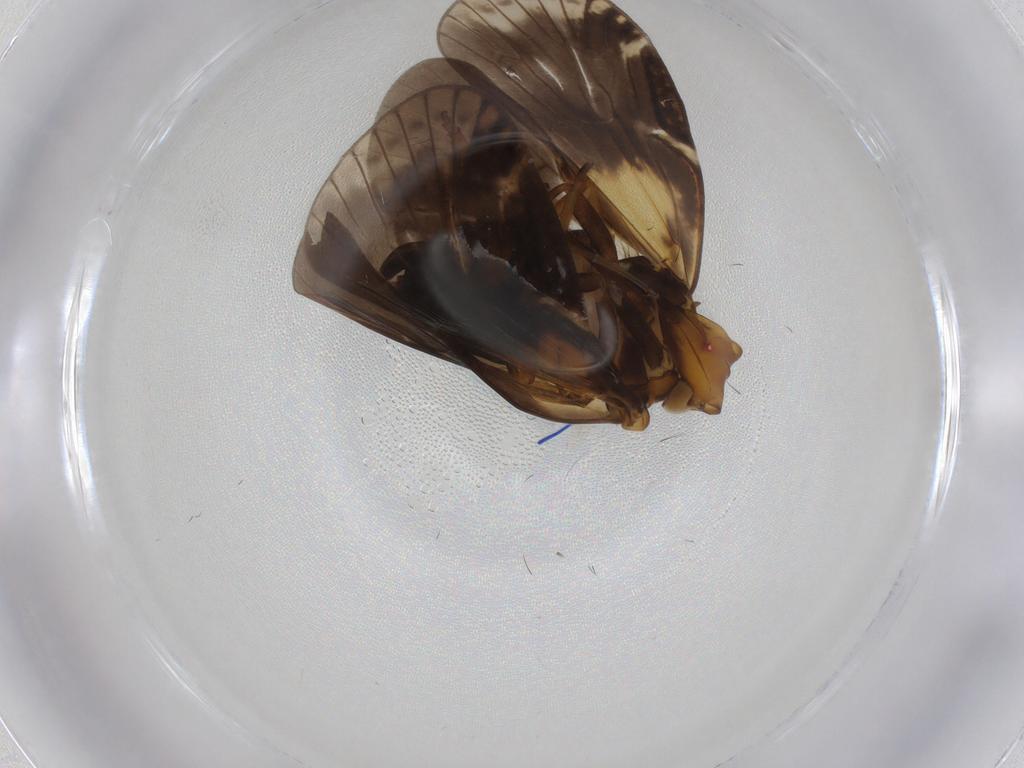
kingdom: Animalia
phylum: Arthropoda
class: Insecta
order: Hemiptera
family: Cixiidae
